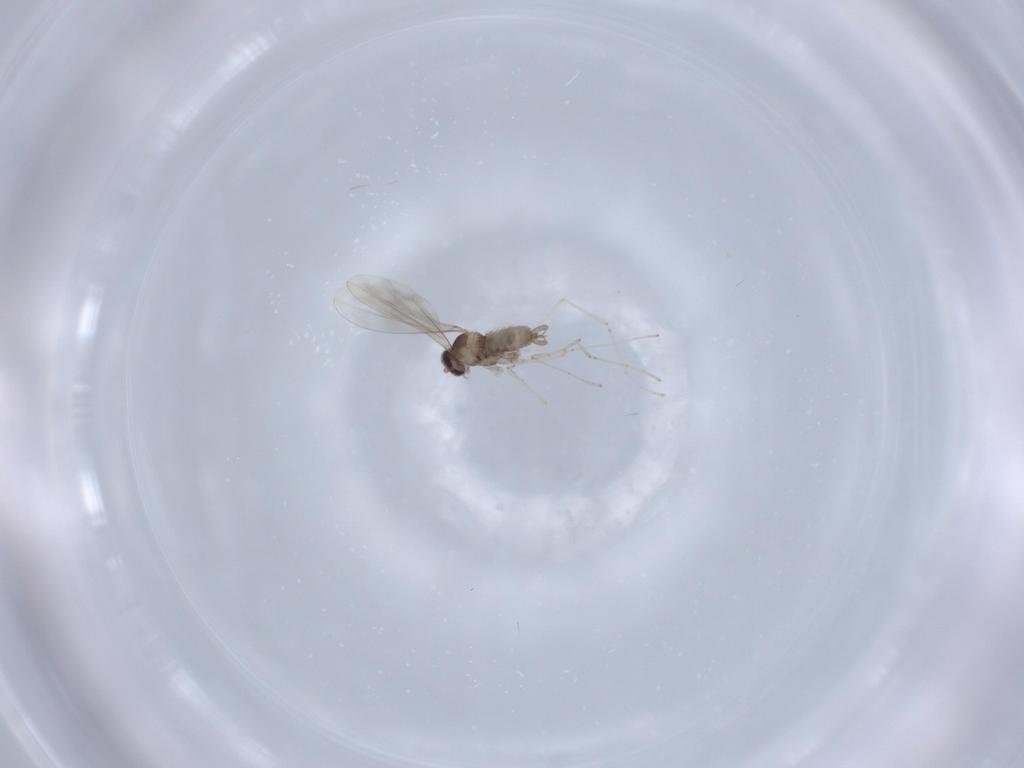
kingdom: Animalia
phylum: Arthropoda
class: Insecta
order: Diptera
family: Cecidomyiidae
